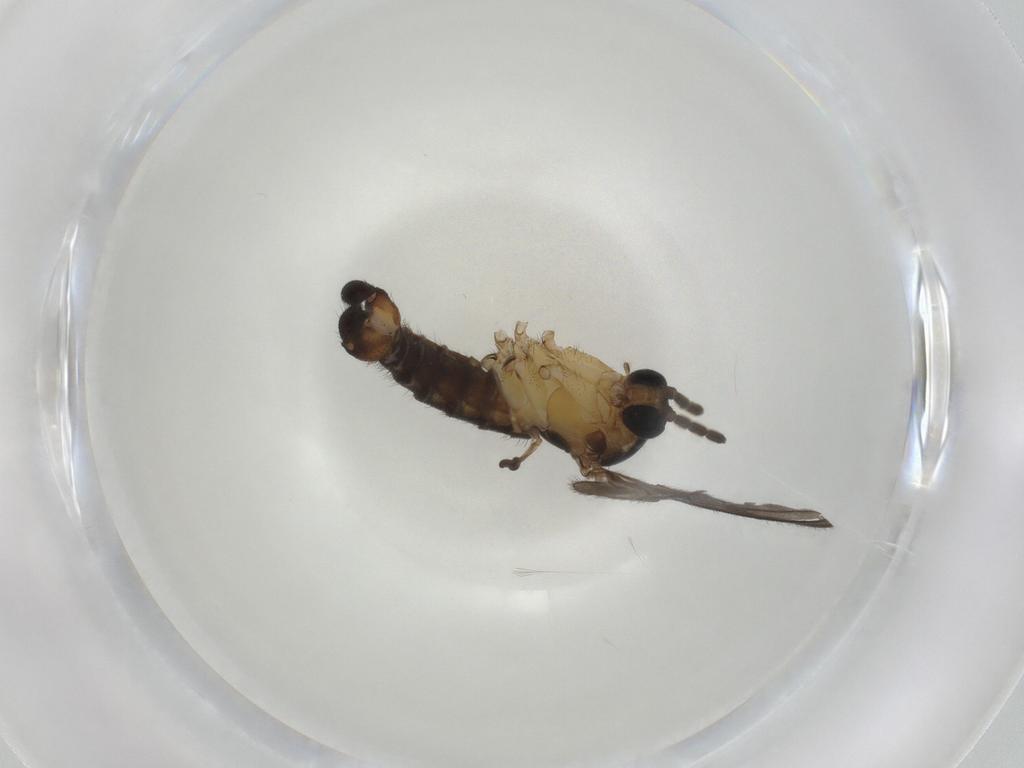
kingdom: Animalia
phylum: Arthropoda
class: Insecta
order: Diptera
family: Sciaridae
